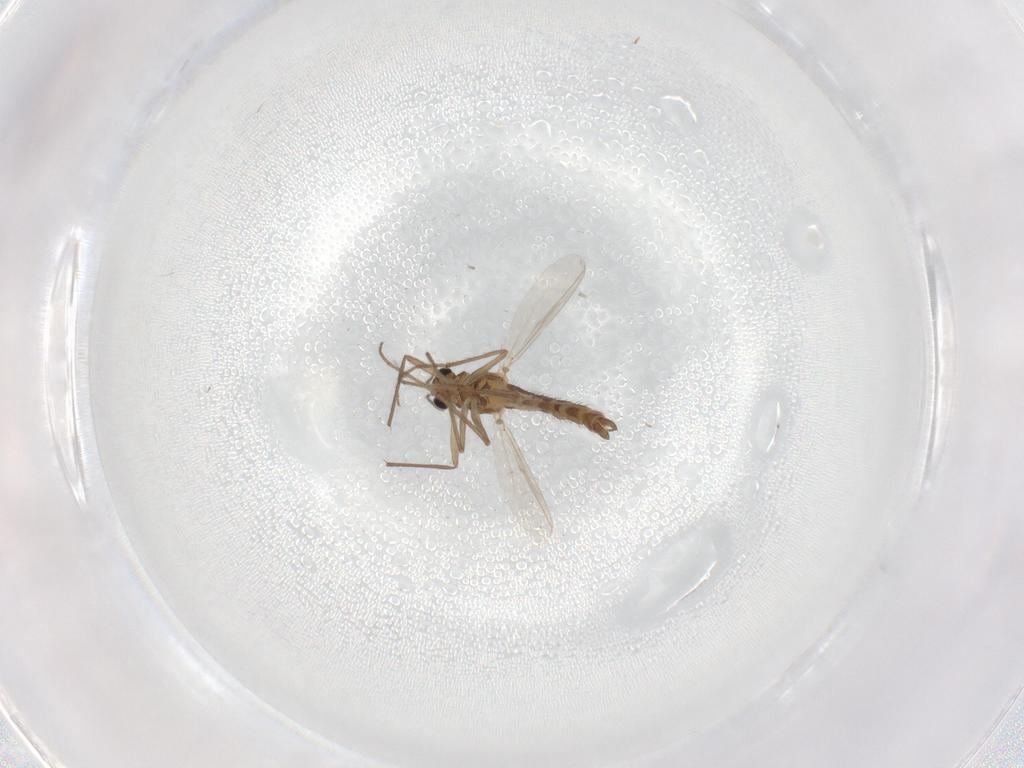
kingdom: Animalia
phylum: Arthropoda
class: Insecta
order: Diptera
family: Chironomidae
